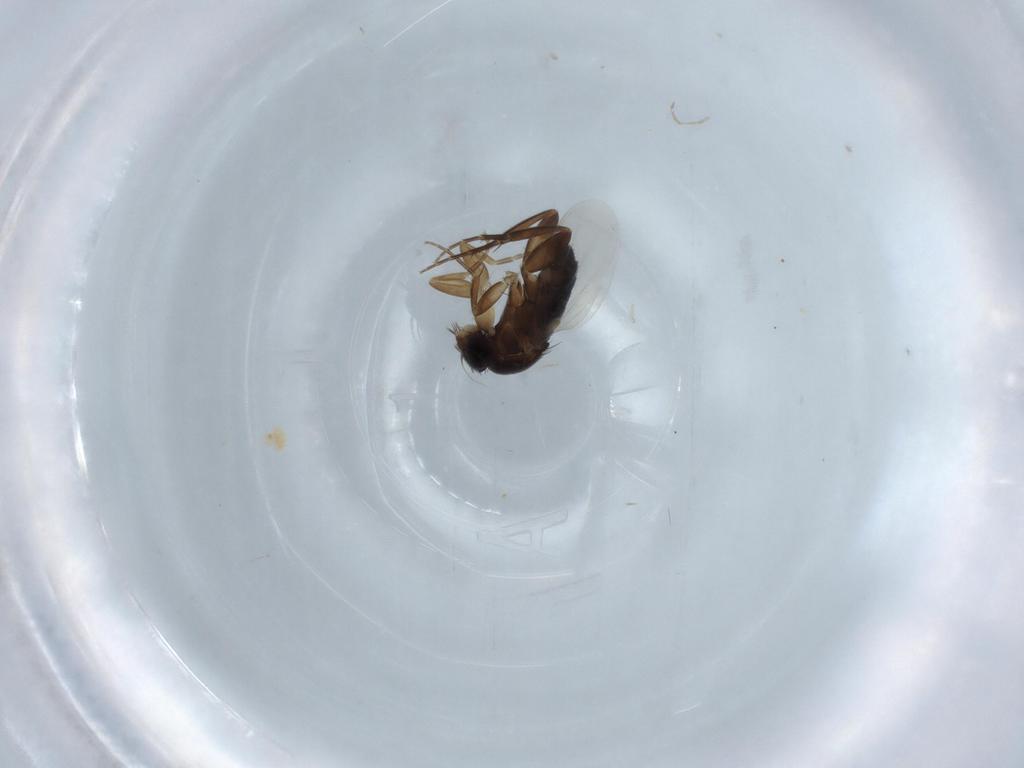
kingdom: Animalia
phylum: Arthropoda
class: Insecta
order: Diptera
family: Phoridae
